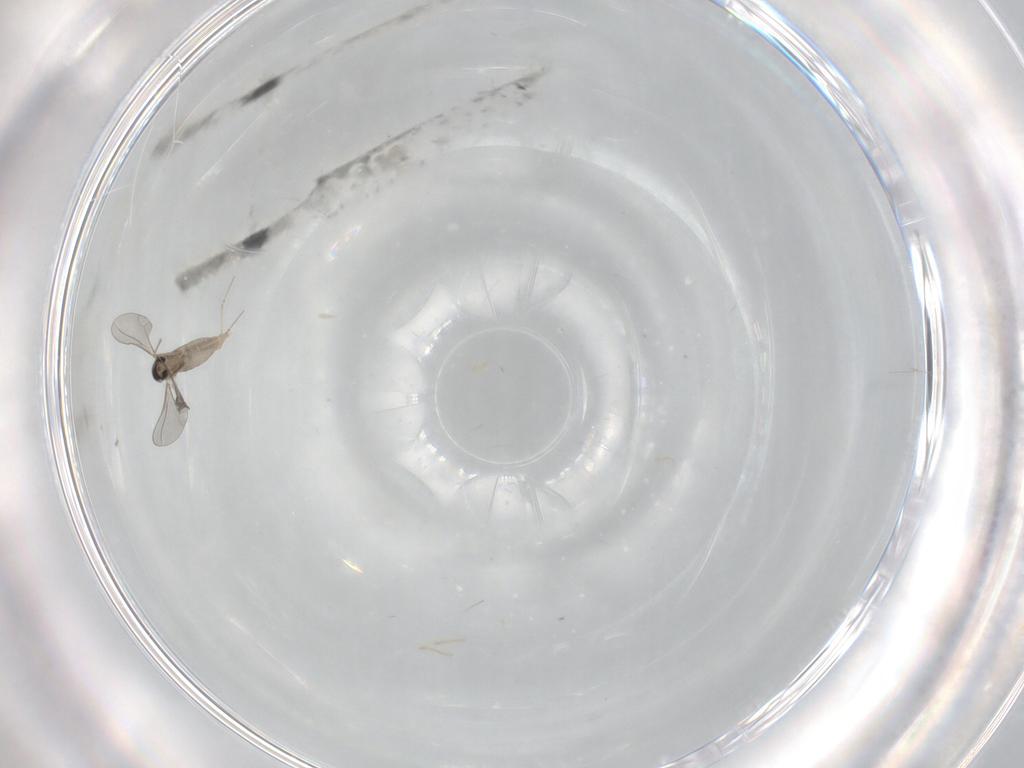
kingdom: Animalia
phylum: Arthropoda
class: Insecta
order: Diptera
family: Cecidomyiidae
